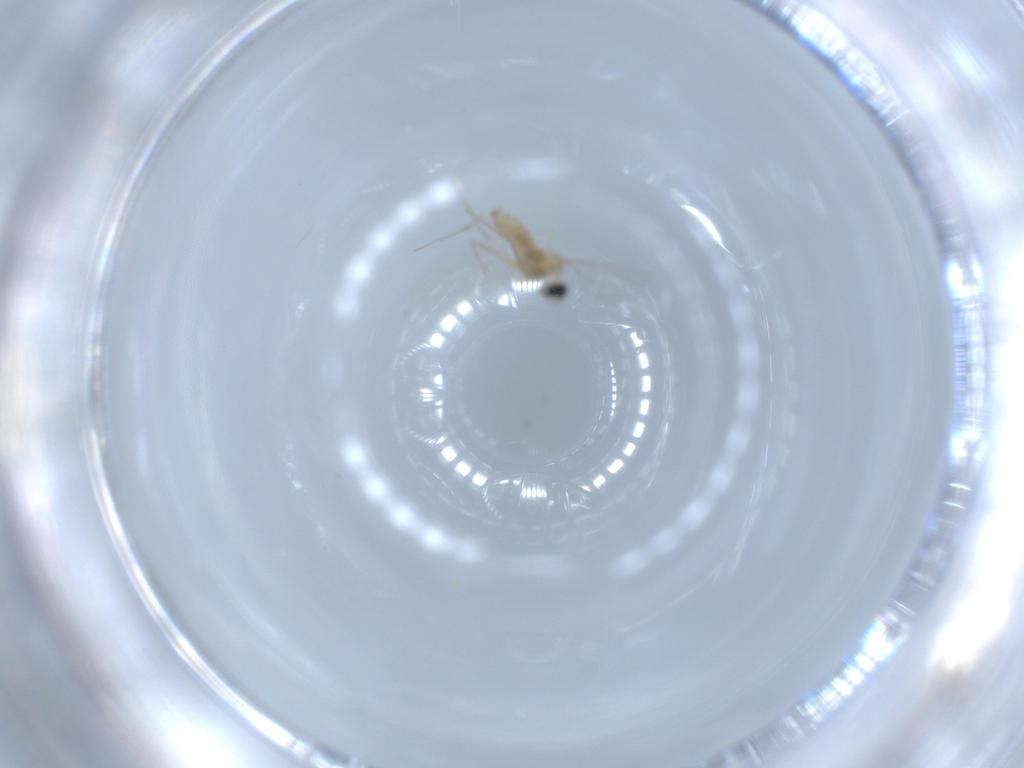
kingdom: Animalia
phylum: Arthropoda
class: Insecta
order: Diptera
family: Sciaridae
